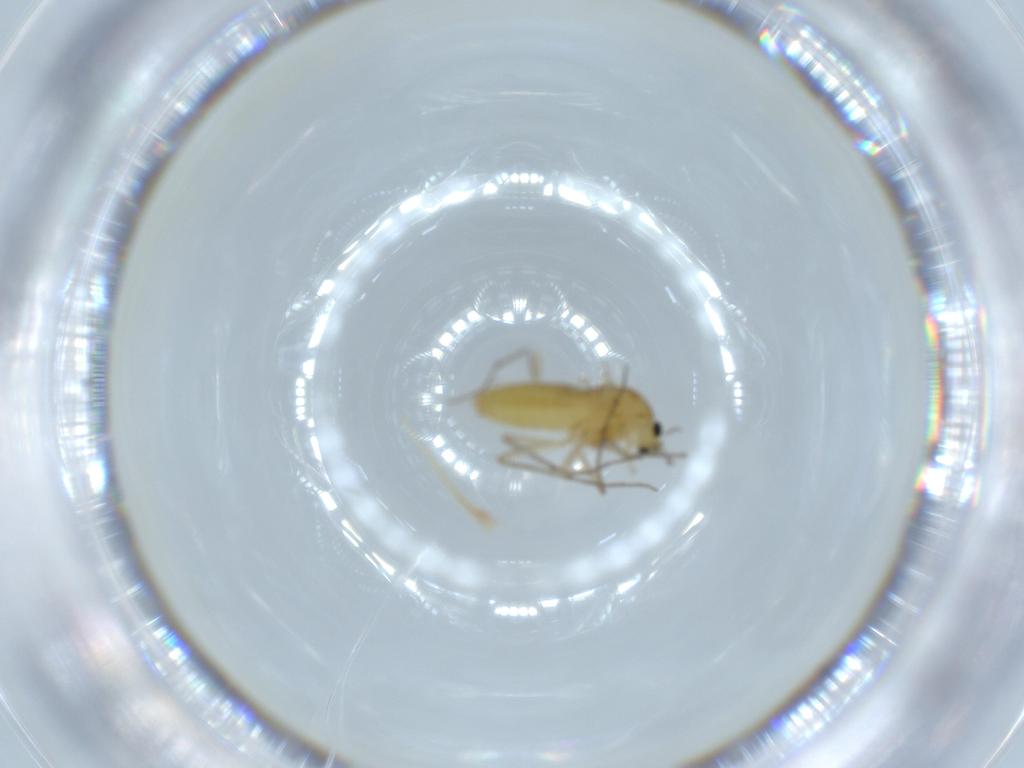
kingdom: Animalia
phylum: Arthropoda
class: Insecta
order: Diptera
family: Chironomidae
